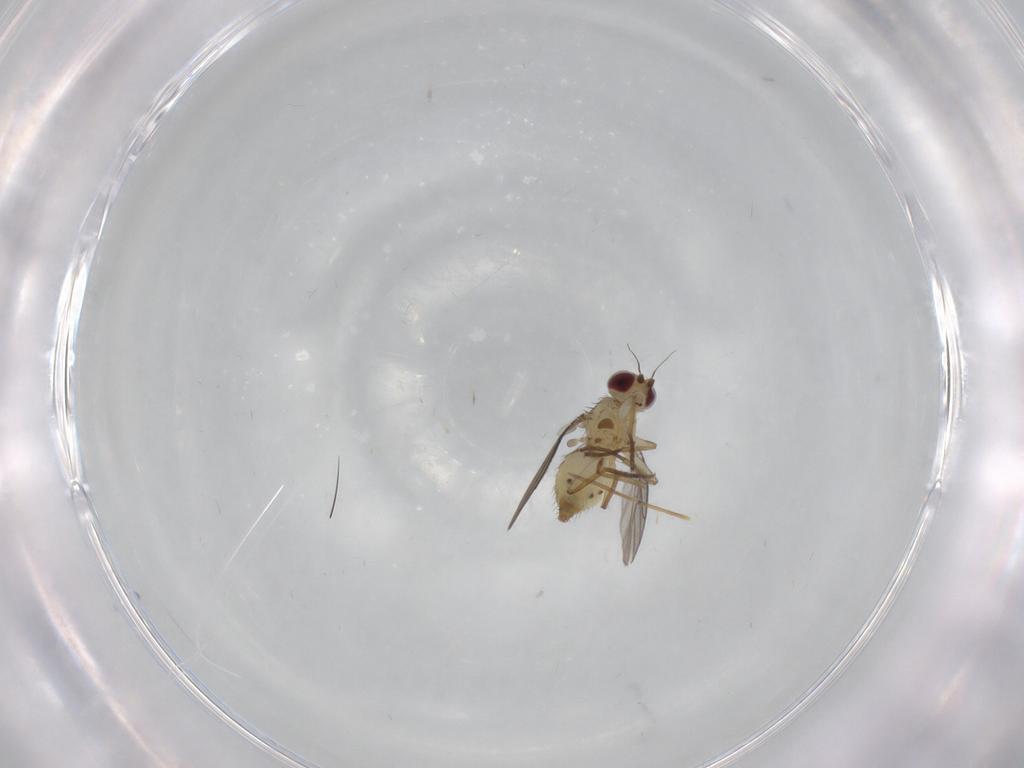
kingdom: Animalia
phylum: Arthropoda
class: Insecta
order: Diptera
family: Agromyzidae
